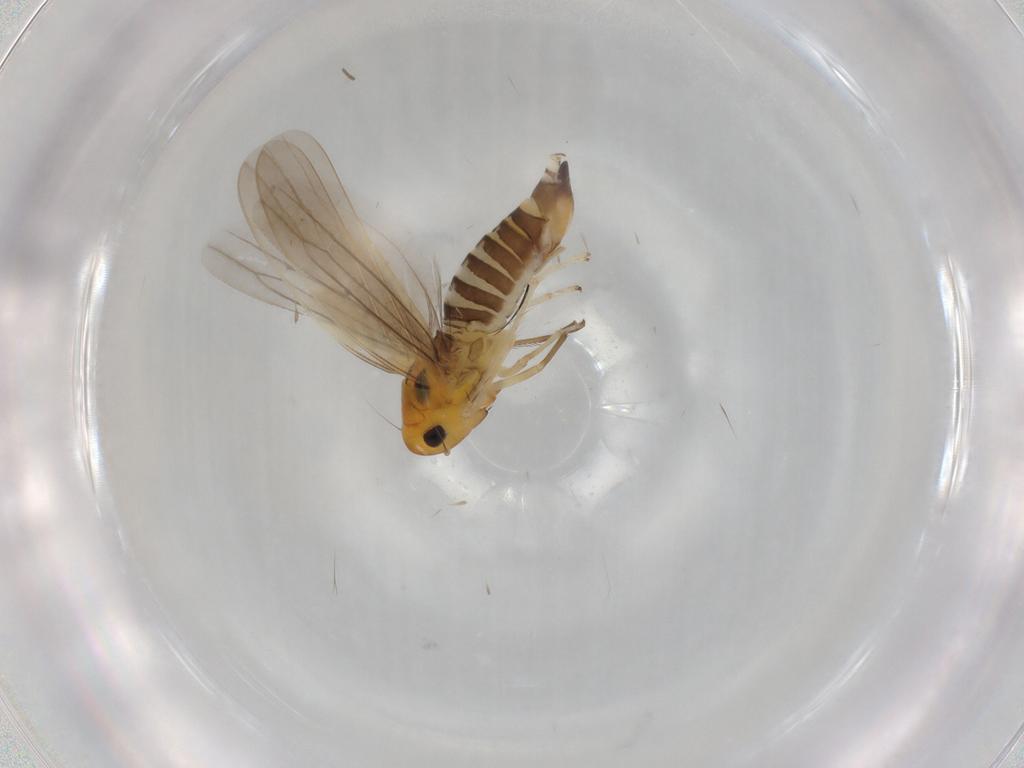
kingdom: Animalia
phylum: Arthropoda
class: Insecta
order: Hemiptera
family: Cicadellidae
